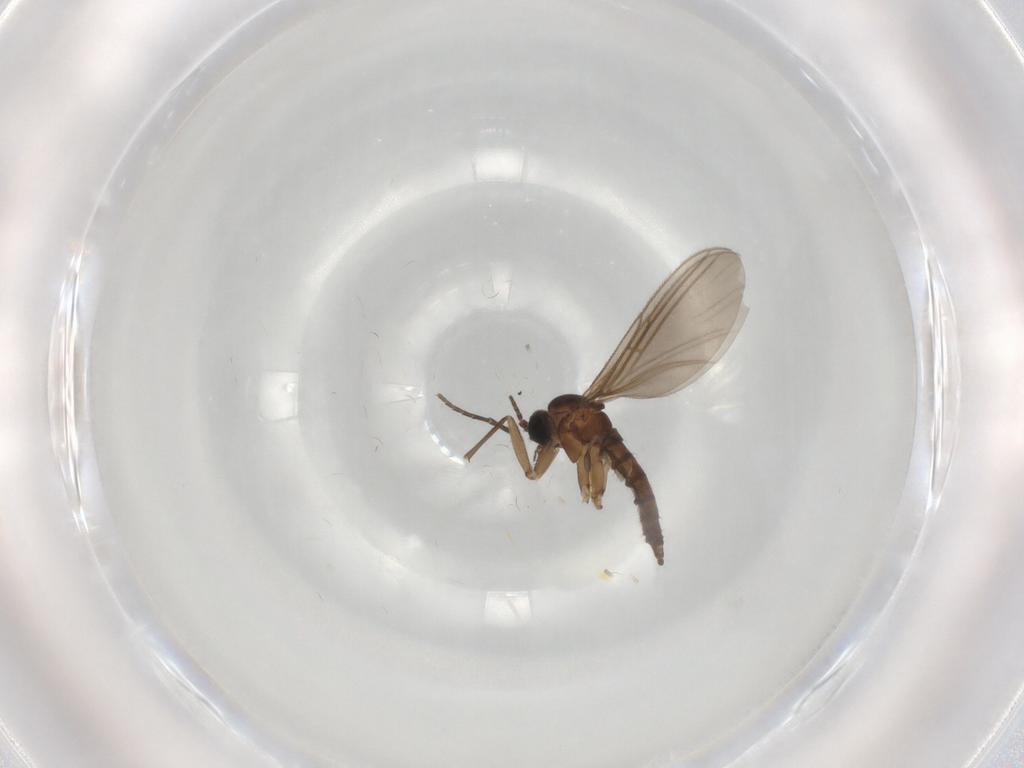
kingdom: Animalia
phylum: Arthropoda
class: Insecta
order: Diptera
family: Sciaridae
